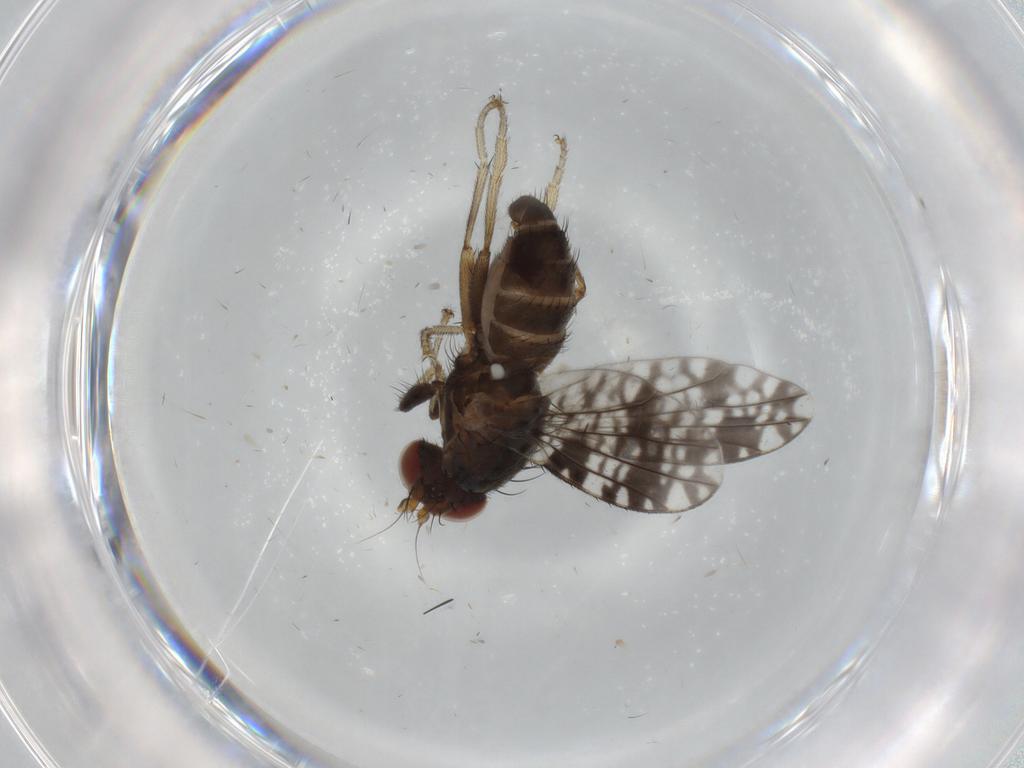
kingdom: Animalia
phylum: Arthropoda
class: Insecta
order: Diptera
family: Tephritidae
